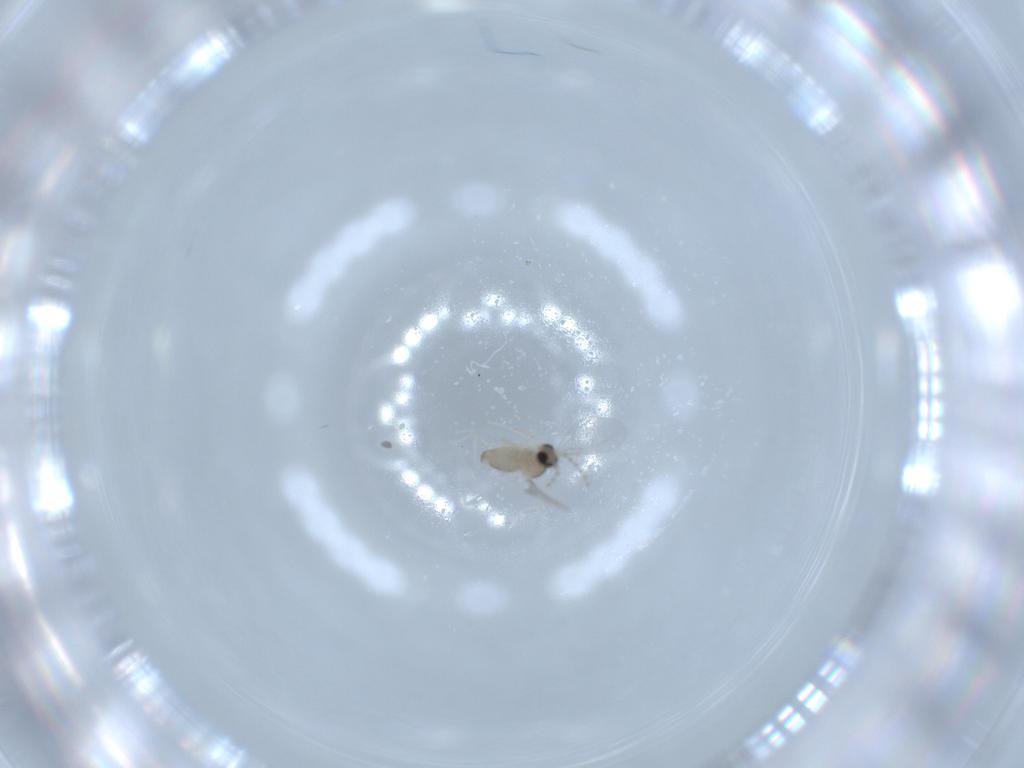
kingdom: Animalia
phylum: Arthropoda
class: Insecta
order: Diptera
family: Cecidomyiidae
